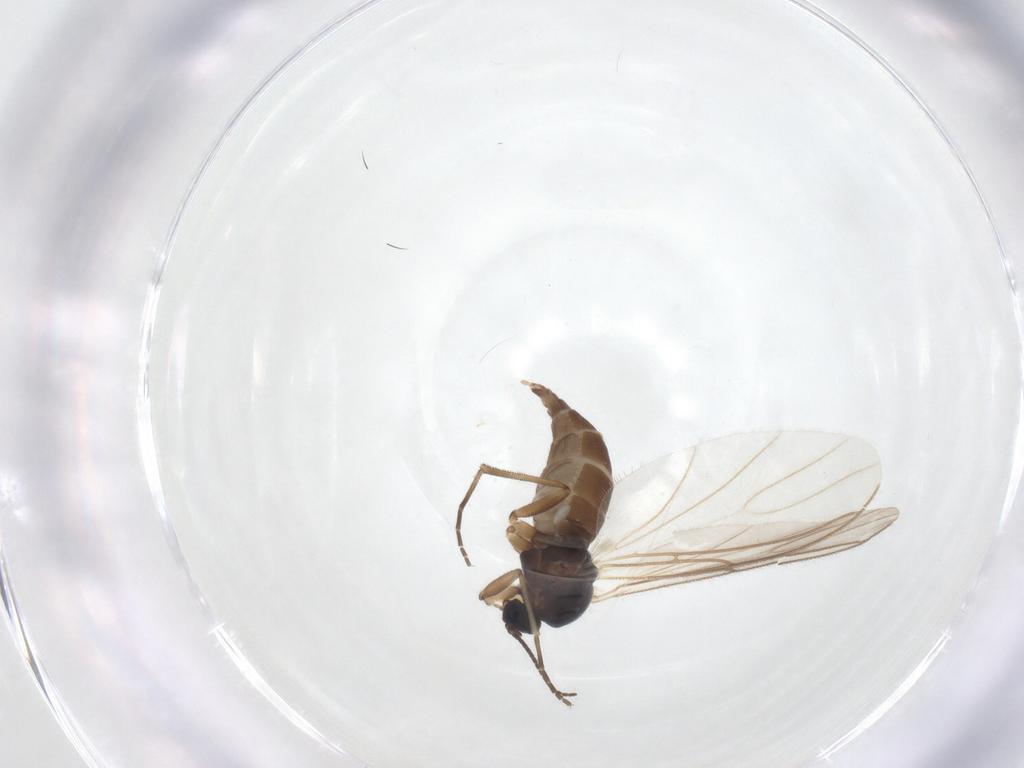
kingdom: Animalia
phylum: Arthropoda
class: Insecta
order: Diptera
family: Sciaridae
